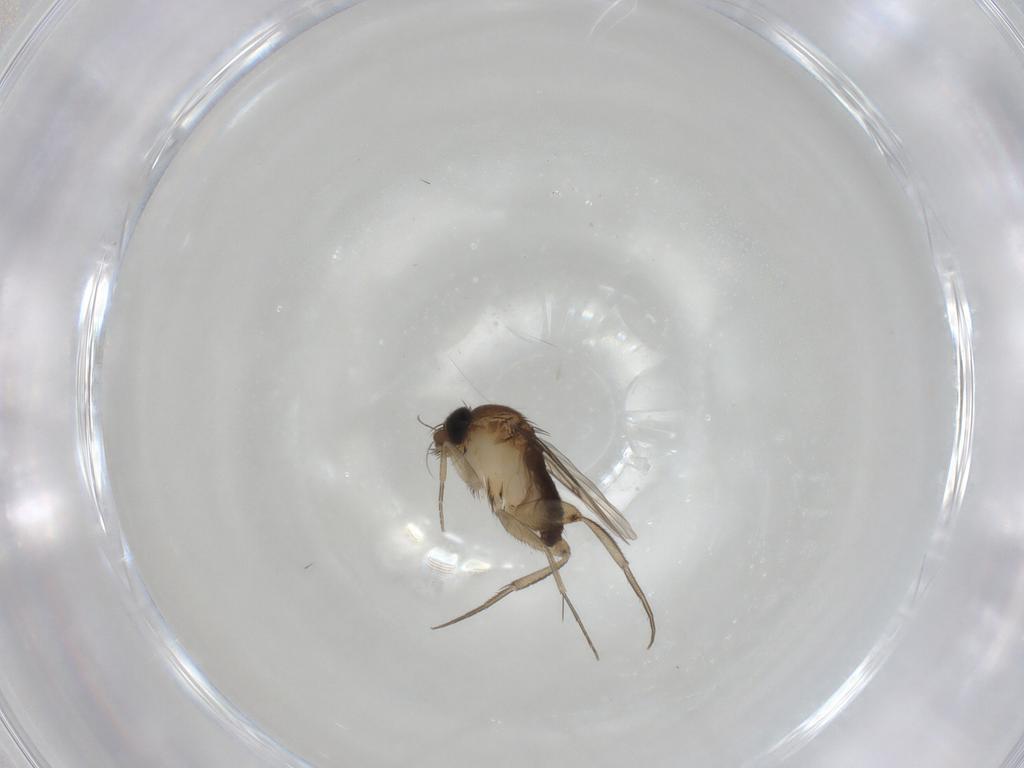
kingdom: Animalia
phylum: Arthropoda
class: Insecta
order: Diptera
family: Phoridae
